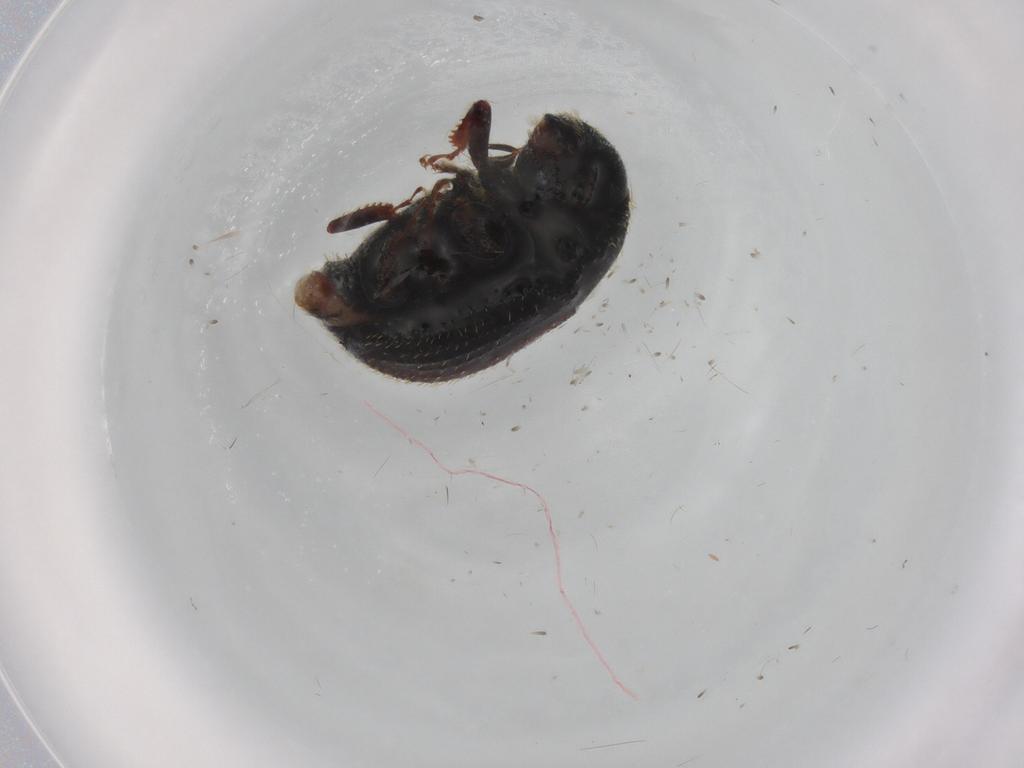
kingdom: Animalia
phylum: Arthropoda
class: Insecta
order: Coleoptera
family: Curculionidae
